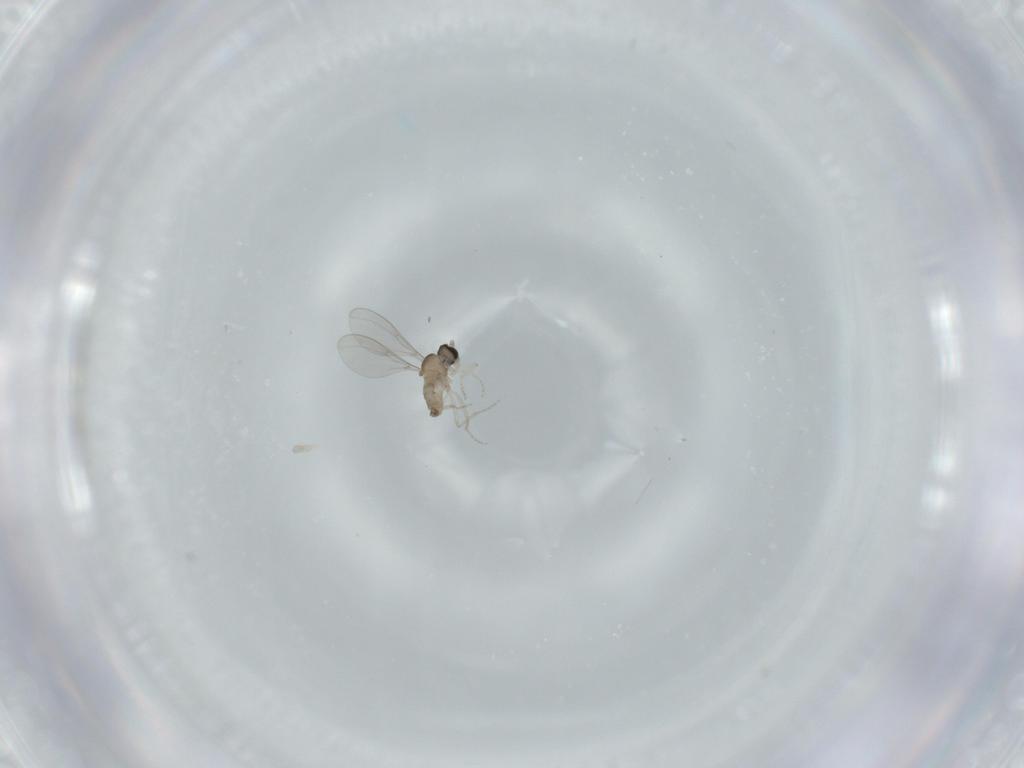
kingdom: Animalia
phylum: Arthropoda
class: Insecta
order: Diptera
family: Cecidomyiidae
